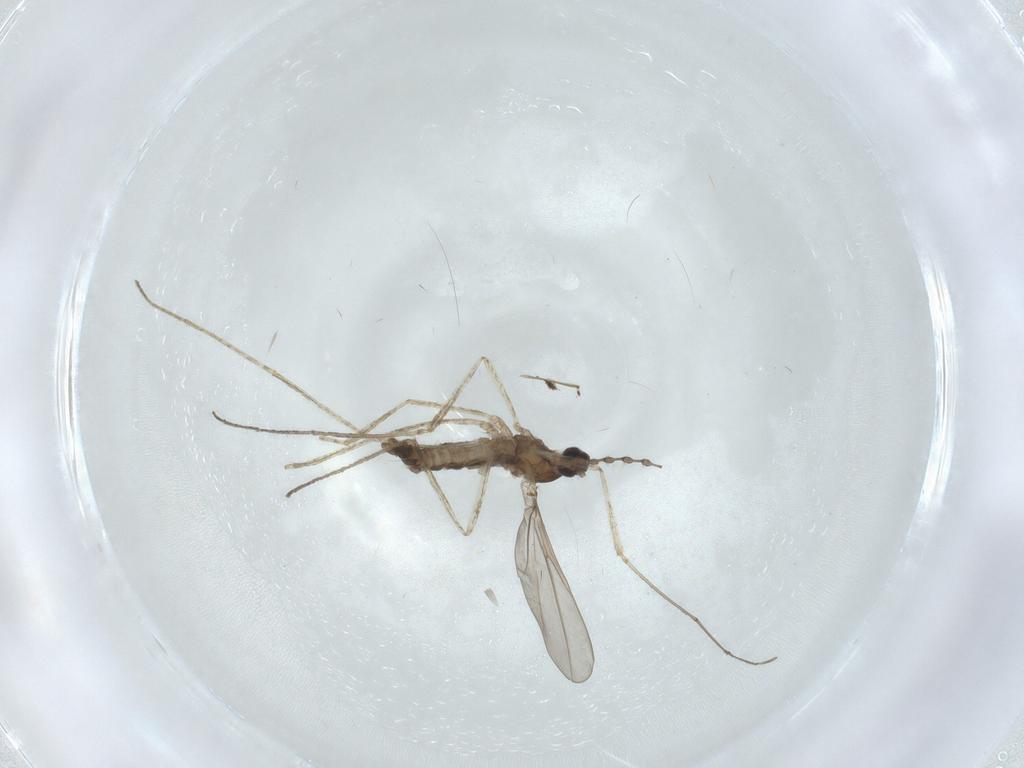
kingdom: Animalia
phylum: Arthropoda
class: Insecta
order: Diptera
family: Cecidomyiidae
